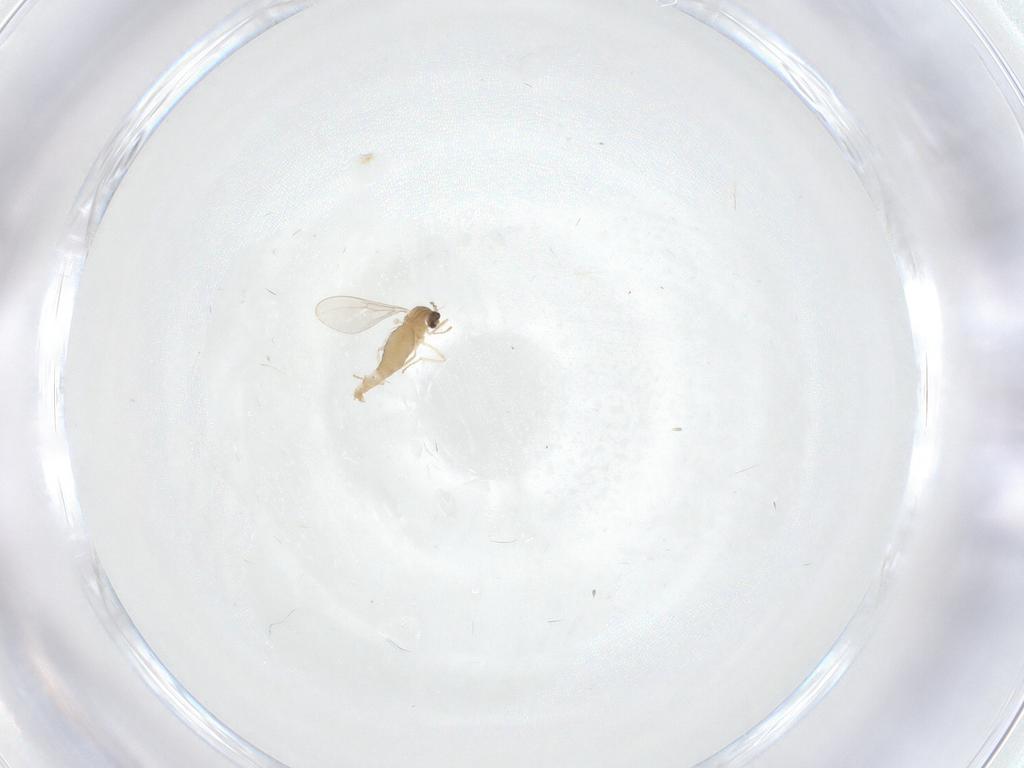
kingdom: Animalia
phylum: Arthropoda
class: Insecta
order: Diptera
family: Cecidomyiidae
